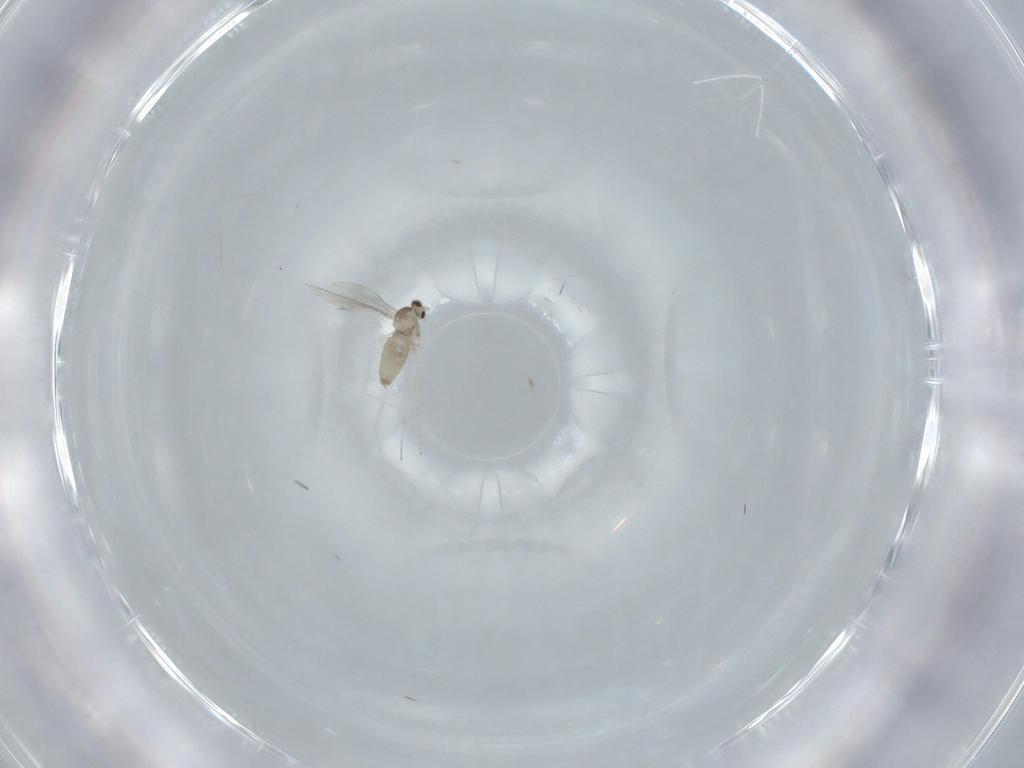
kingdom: Animalia
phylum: Arthropoda
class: Insecta
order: Diptera
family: Cecidomyiidae
